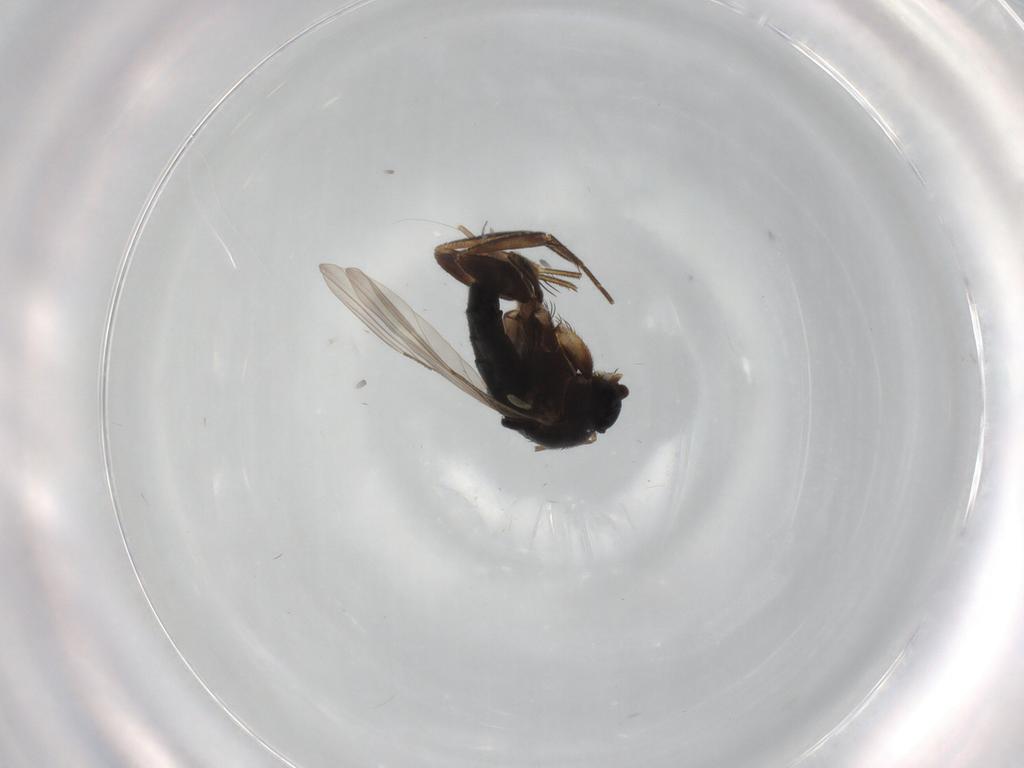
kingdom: Animalia
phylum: Arthropoda
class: Insecta
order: Diptera
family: Phoridae
